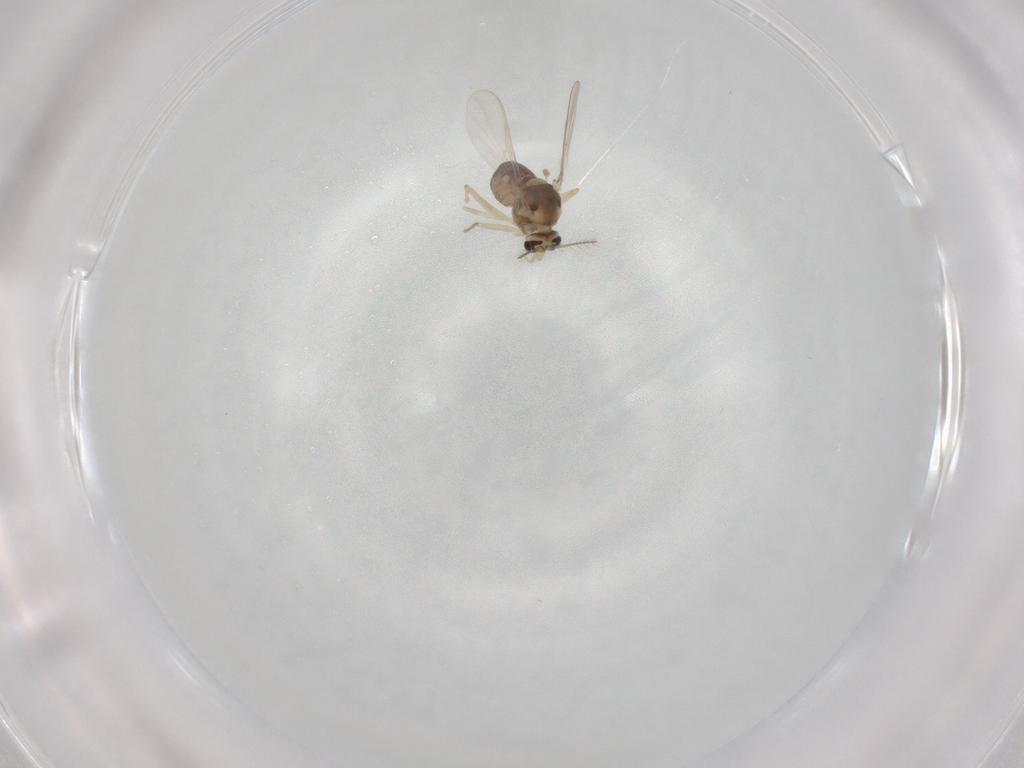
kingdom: Animalia
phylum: Arthropoda
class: Insecta
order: Diptera
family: Chironomidae
